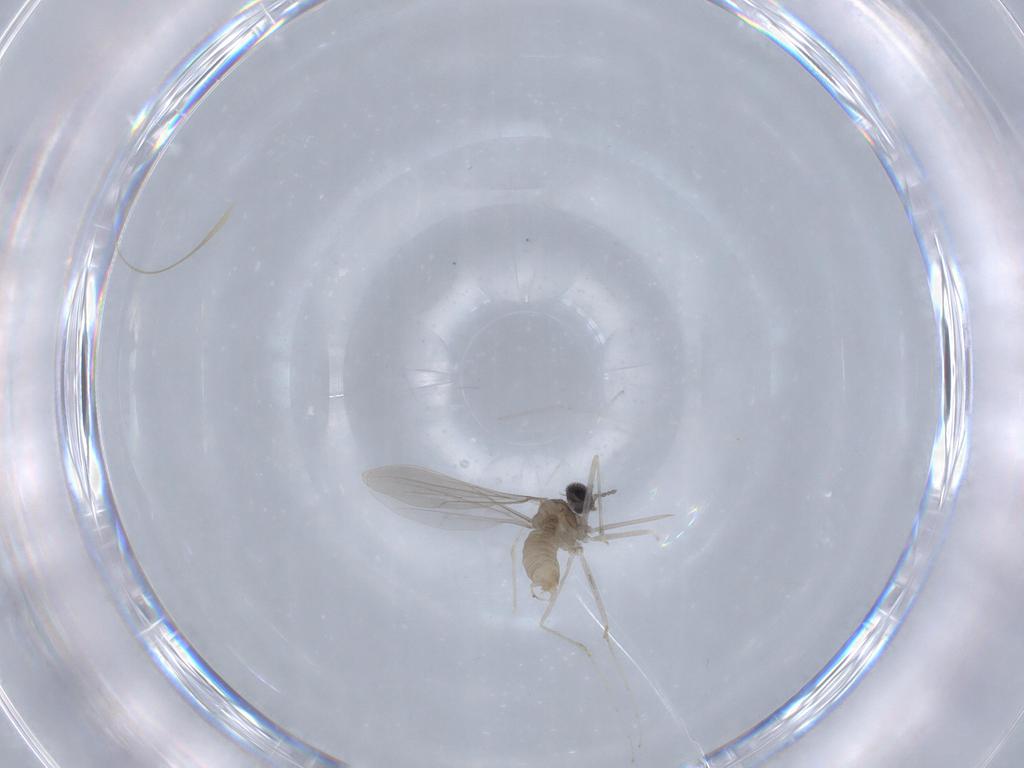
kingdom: Animalia
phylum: Arthropoda
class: Insecta
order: Diptera
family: Cecidomyiidae
